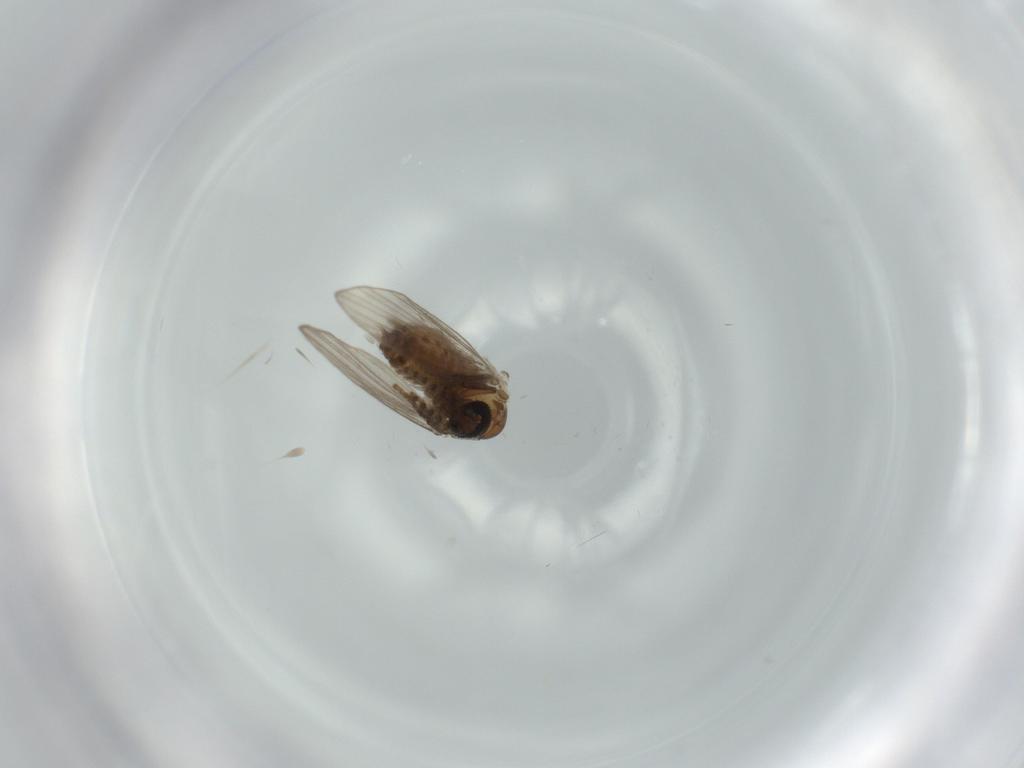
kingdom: Animalia
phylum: Arthropoda
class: Insecta
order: Diptera
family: Psychodidae
